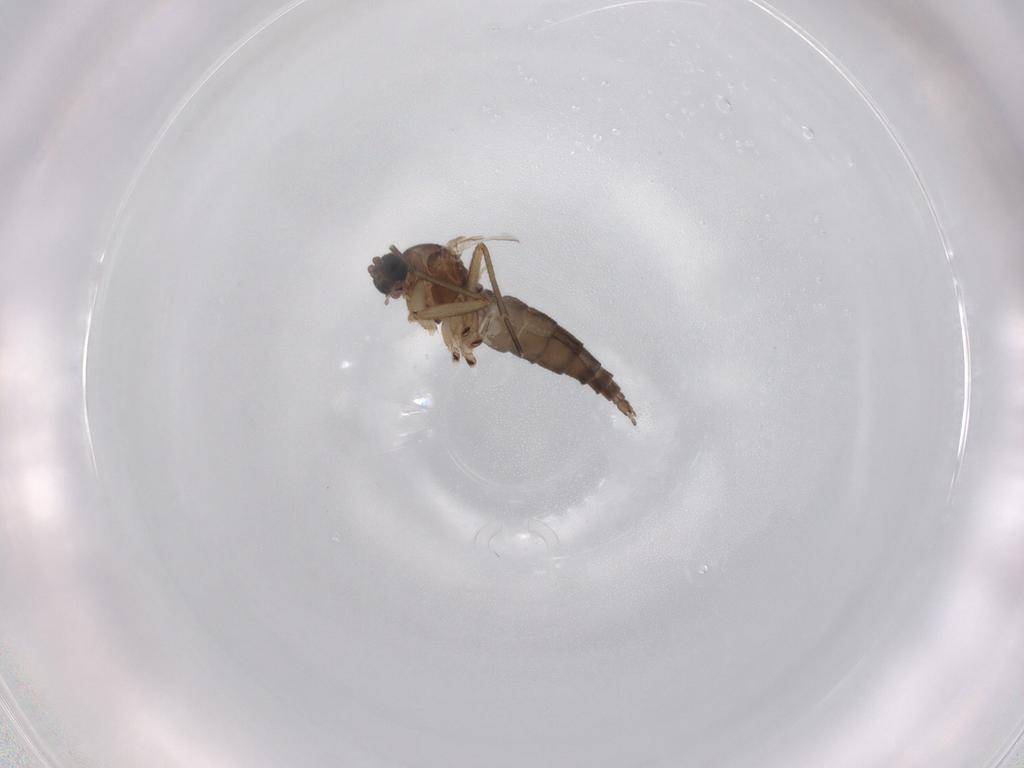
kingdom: Animalia
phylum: Arthropoda
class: Insecta
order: Diptera
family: Sciaridae
